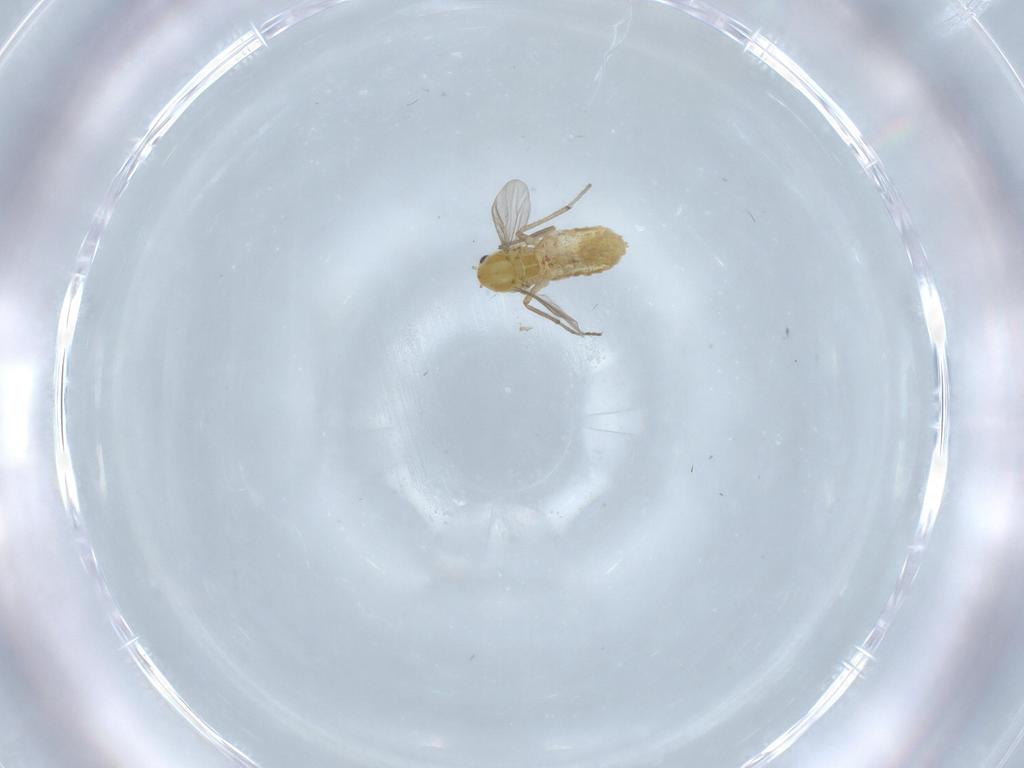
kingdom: Animalia
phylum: Arthropoda
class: Insecta
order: Diptera
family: Chironomidae
